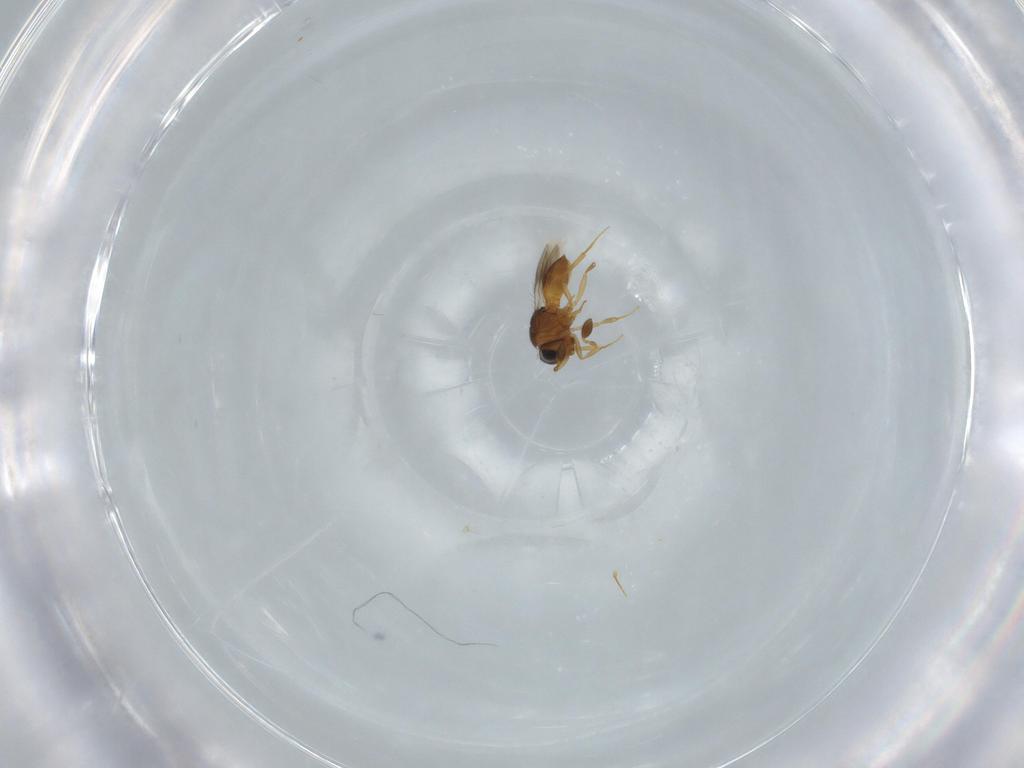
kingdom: Animalia
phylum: Arthropoda
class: Insecta
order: Hymenoptera
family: Scelionidae
